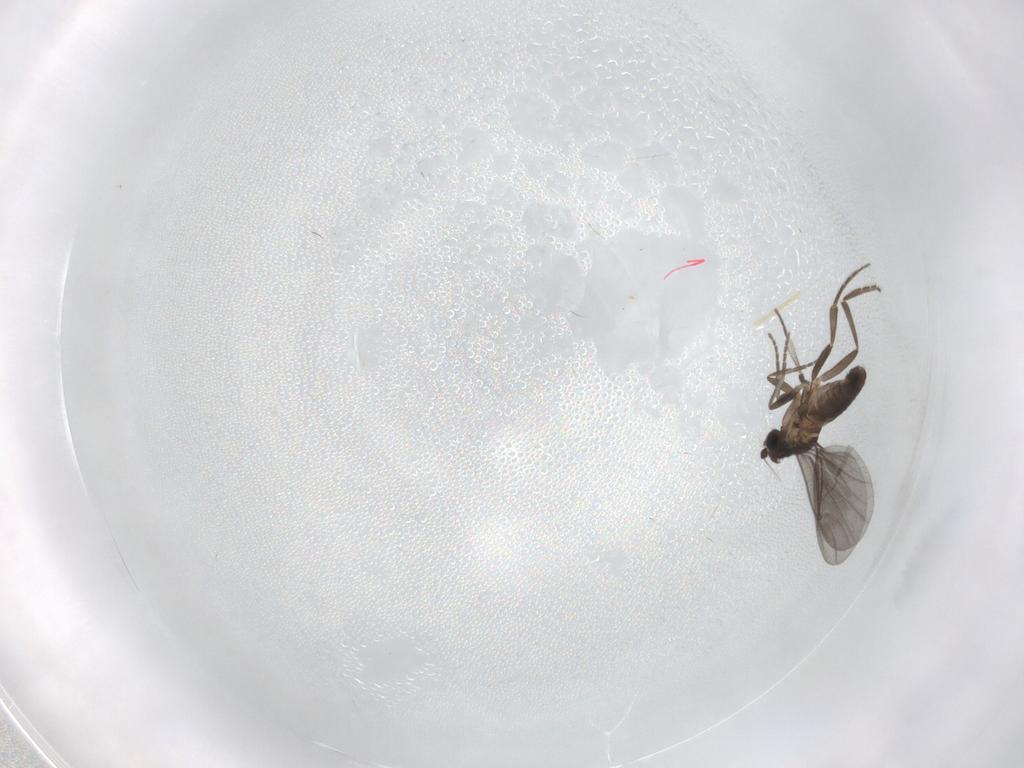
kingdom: Animalia
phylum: Arthropoda
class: Insecta
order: Diptera
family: Phoridae
